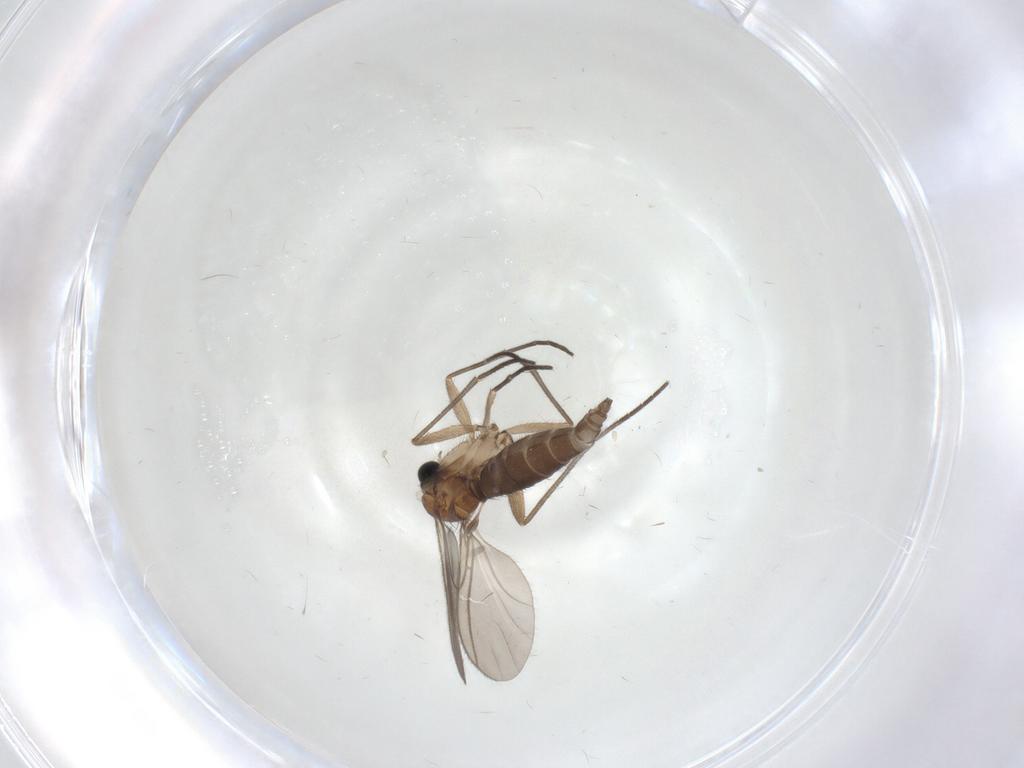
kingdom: Animalia
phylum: Arthropoda
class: Insecta
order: Diptera
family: Sciaridae
